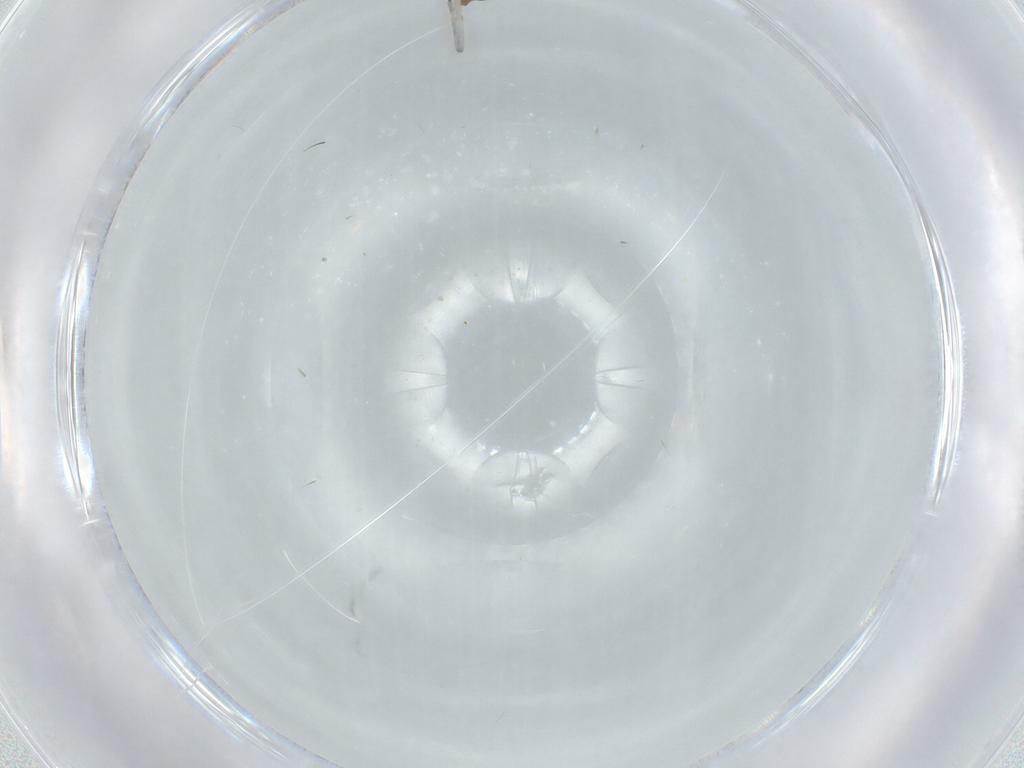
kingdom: Animalia
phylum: Arthropoda
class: Insecta
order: Diptera
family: Chironomidae
